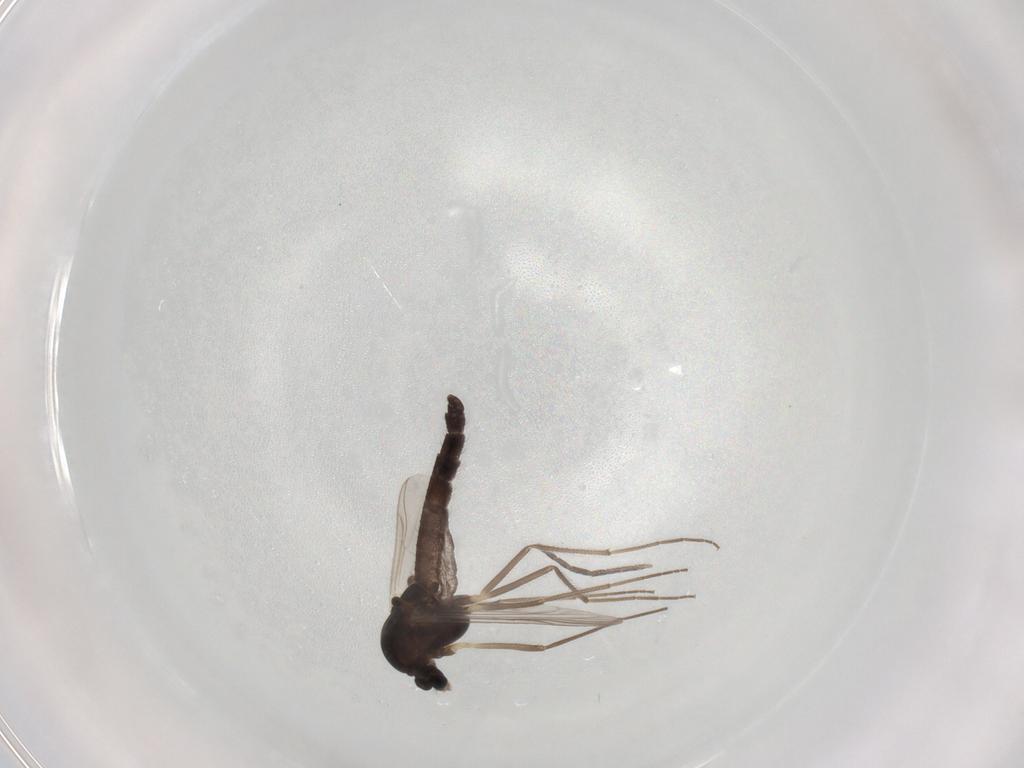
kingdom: Animalia
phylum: Arthropoda
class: Insecta
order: Diptera
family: Chironomidae
